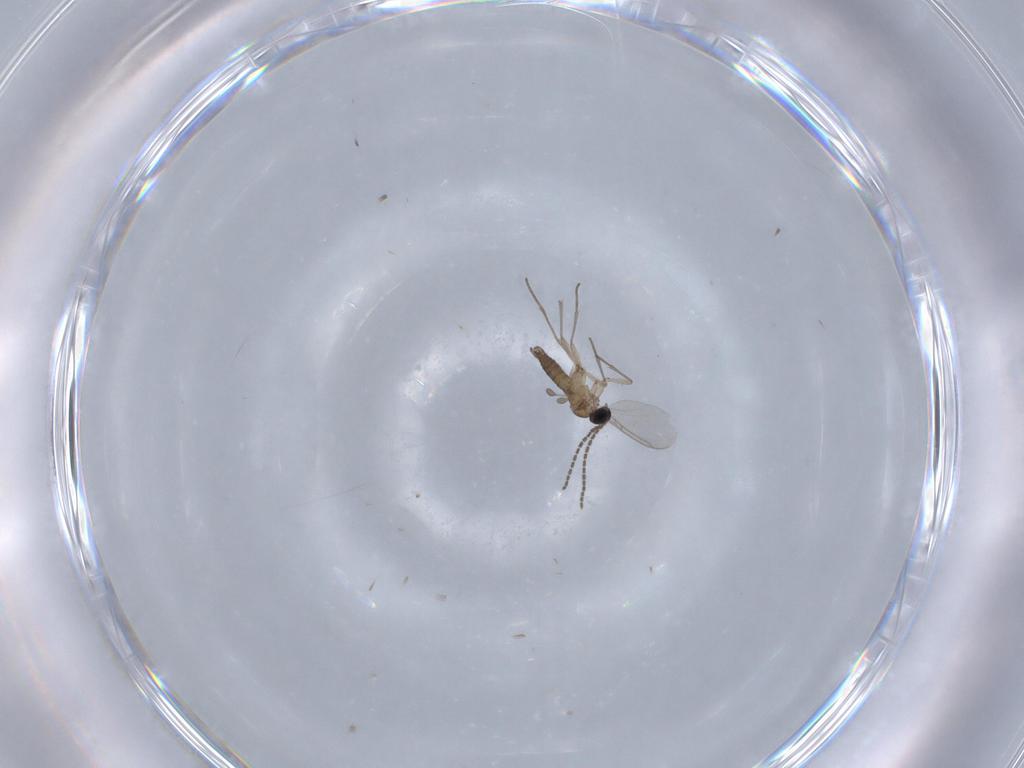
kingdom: Animalia
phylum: Arthropoda
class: Insecta
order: Diptera
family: Sciaridae
